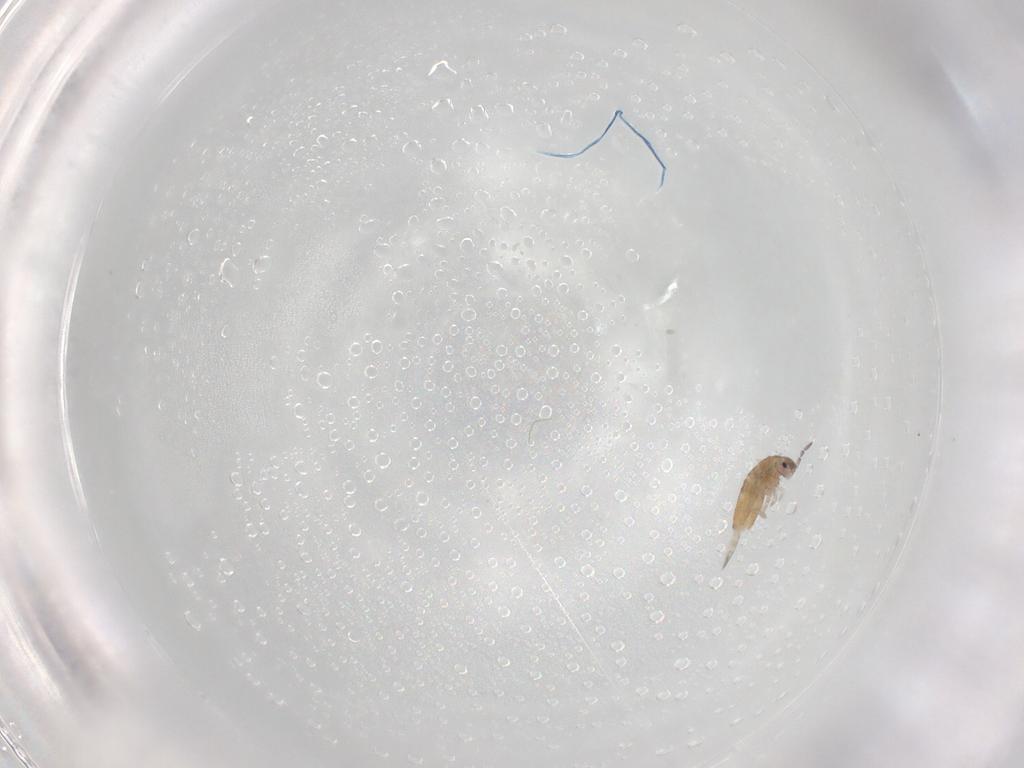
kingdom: Animalia
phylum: Arthropoda
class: Collembola
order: Entomobryomorpha
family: Entomobryidae
